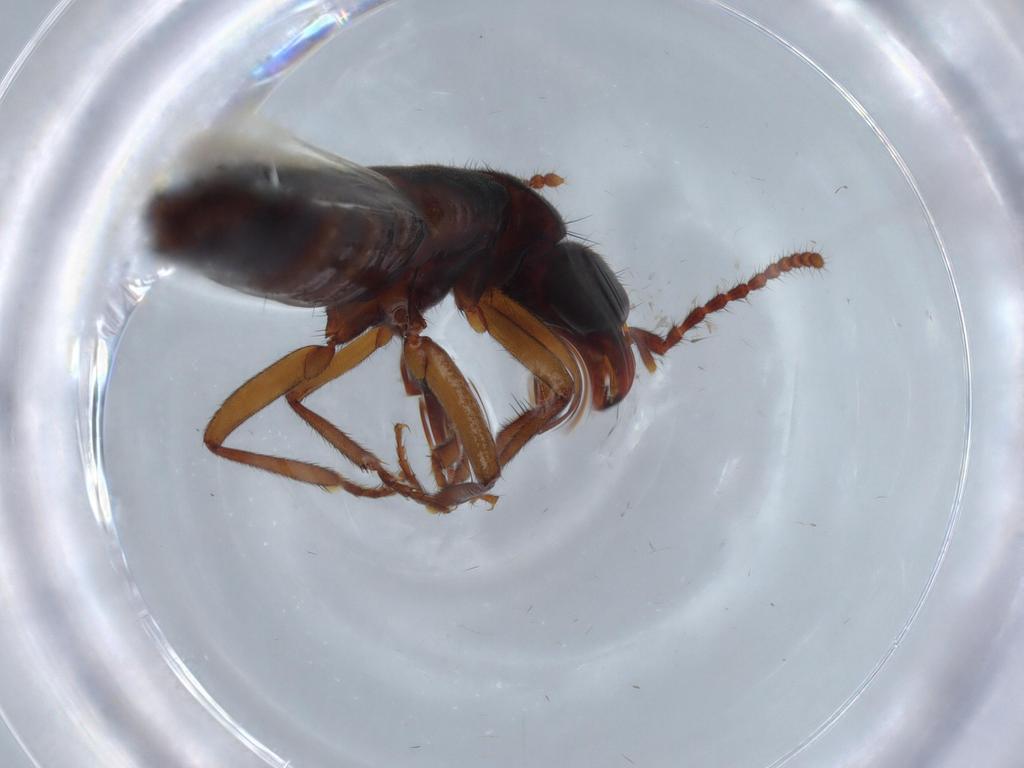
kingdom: Animalia
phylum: Arthropoda
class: Insecta
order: Coleoptera
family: Staphylinidae
